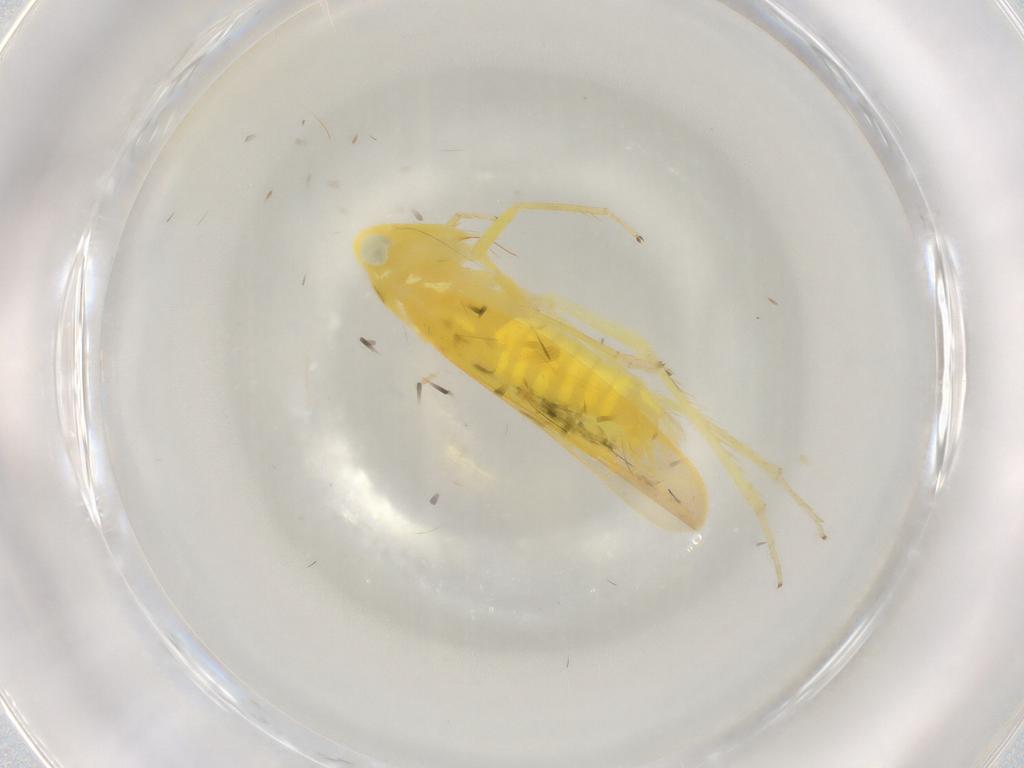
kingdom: Animalia
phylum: Arthropoda
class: Insecta
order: Hemiptera
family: Cicadellidae
